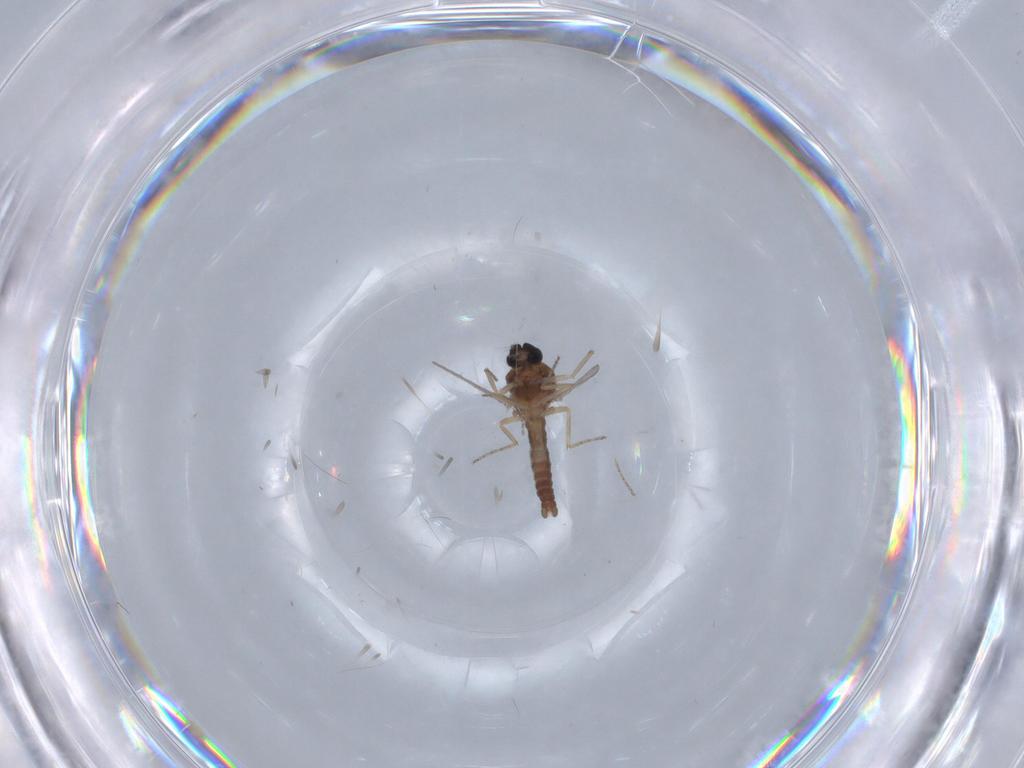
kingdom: Animalia
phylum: Arthropoda
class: Insecta
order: Diptera
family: Ceratopogonidae
